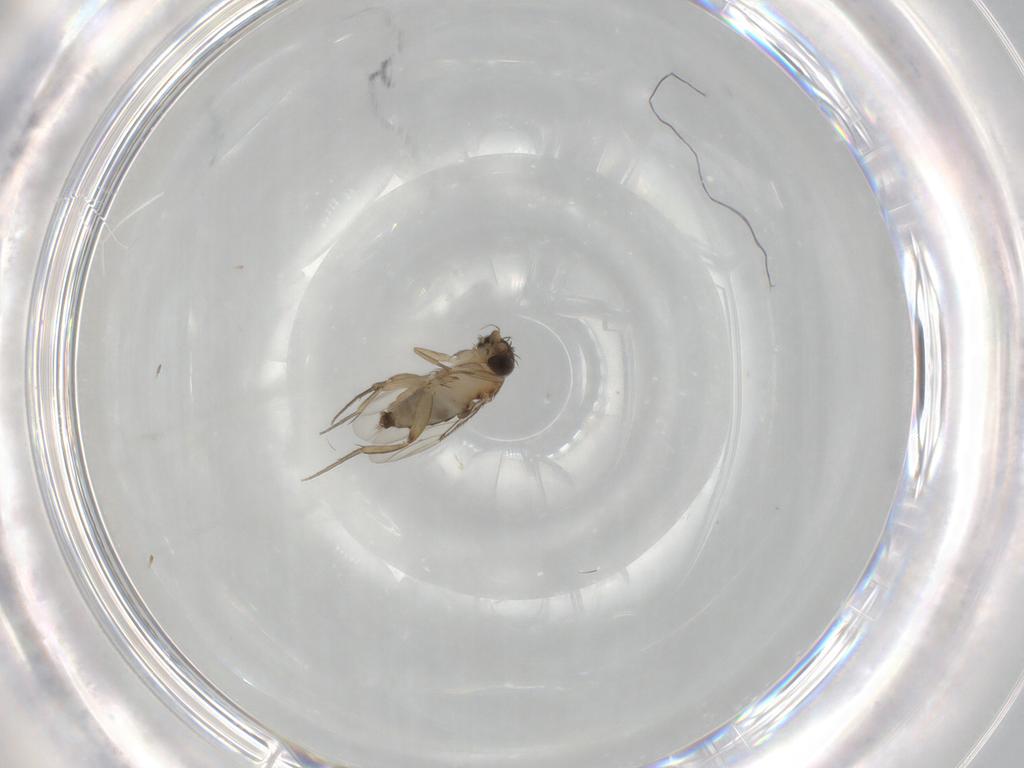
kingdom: Animalia
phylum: Arthropoda
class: Insecta
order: Diptera
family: Phoridae
